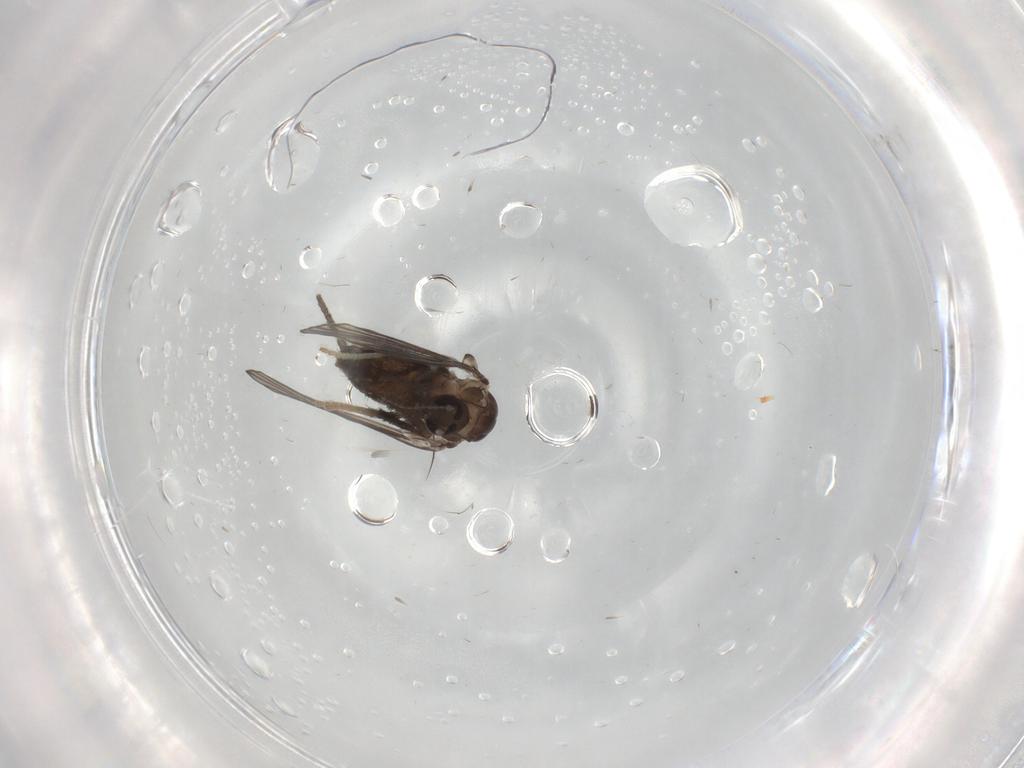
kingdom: Animalia
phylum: Arthropoda
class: Insecta
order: Diptera
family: Psychodidae
